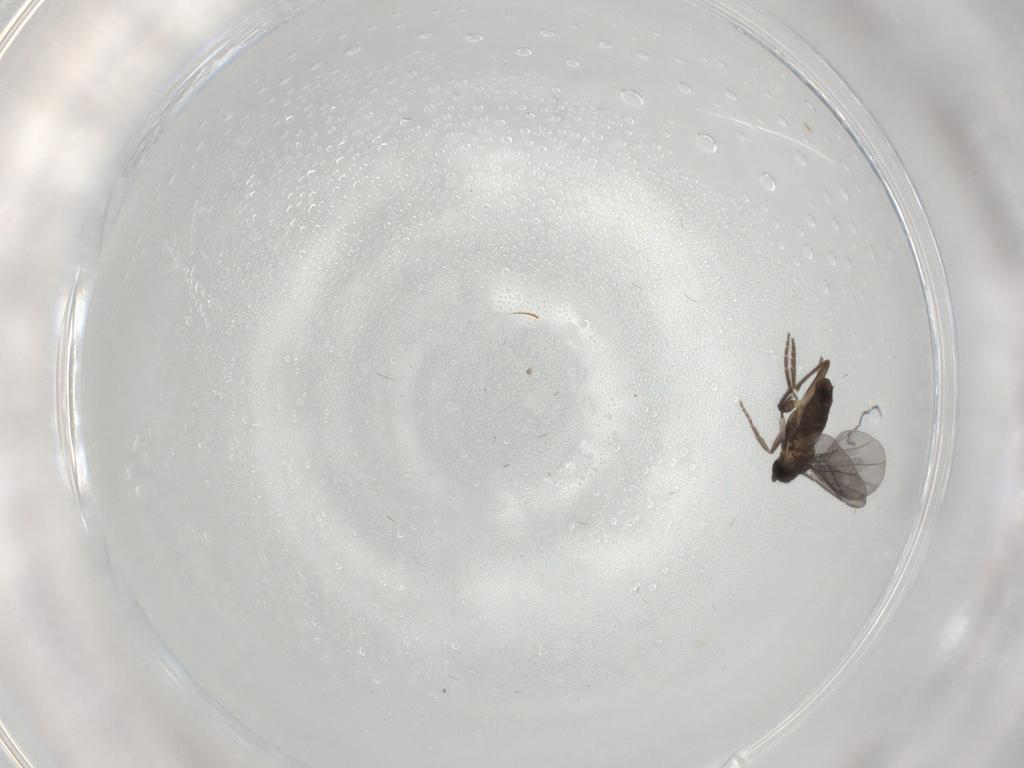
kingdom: Animalia
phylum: Arthropoda
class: Insecta
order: Diptera
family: Phoridae
